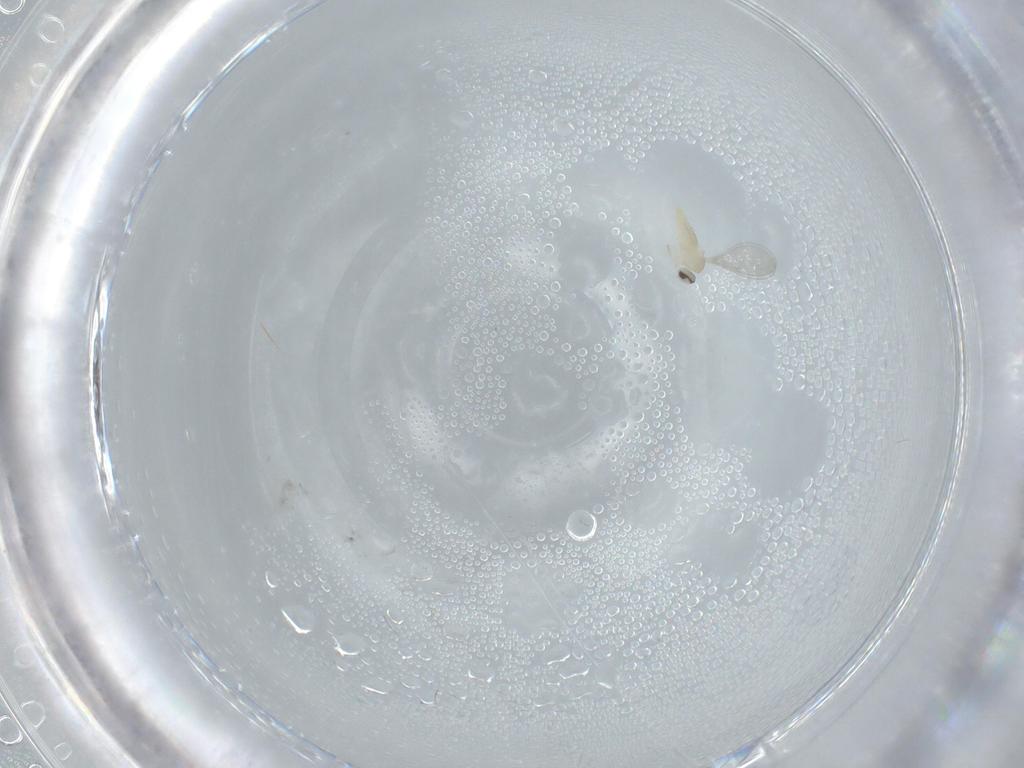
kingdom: Animalia
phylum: Arthropoda
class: Insecta
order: Diptera
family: Cecidomyiidae
